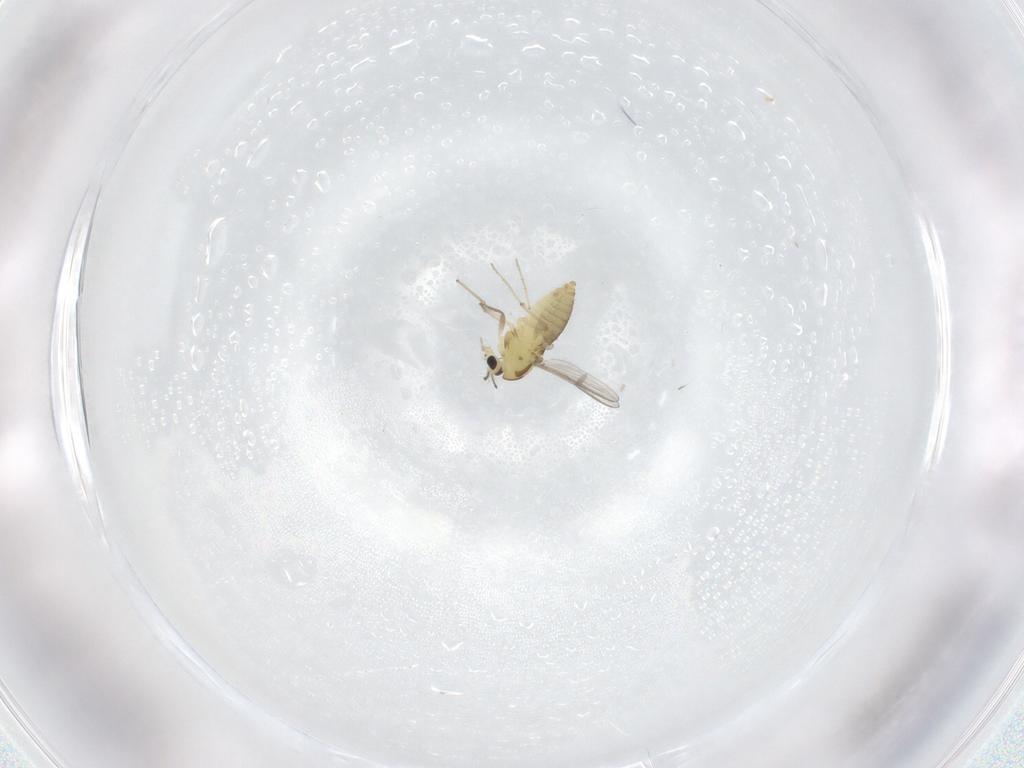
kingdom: Animalia
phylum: Arthropoda
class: Insecta
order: Diptera
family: Chironomidae
